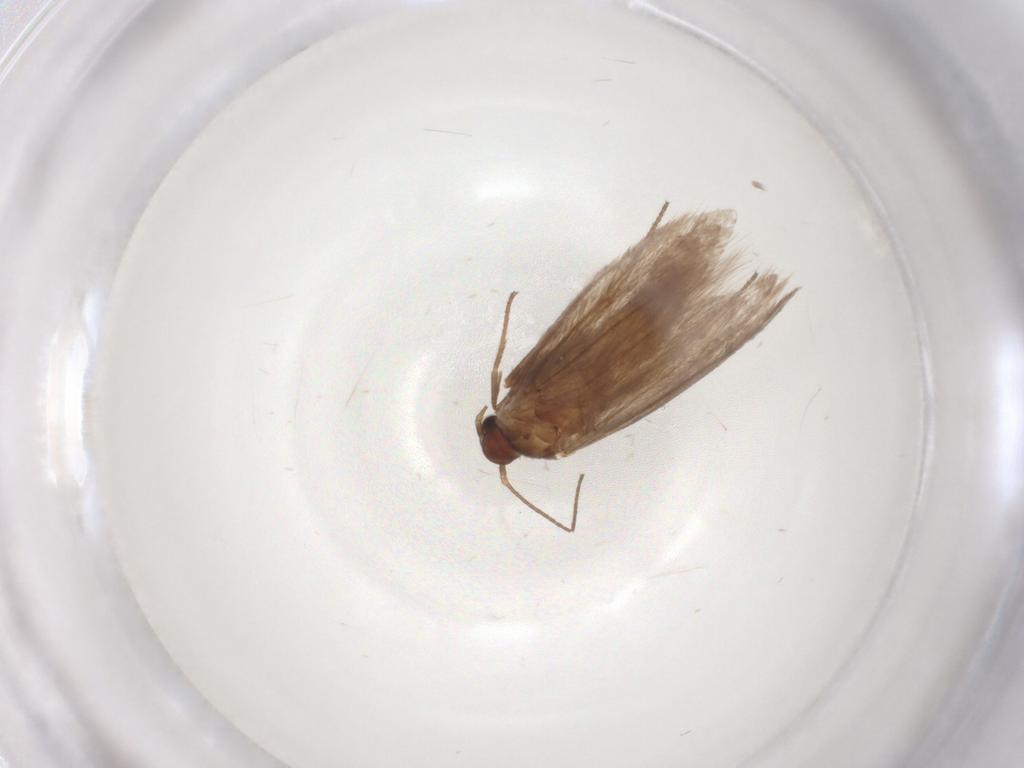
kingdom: Animalia
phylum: Arthropoda
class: Insecta
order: Lepidoptera
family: Limacodidae
